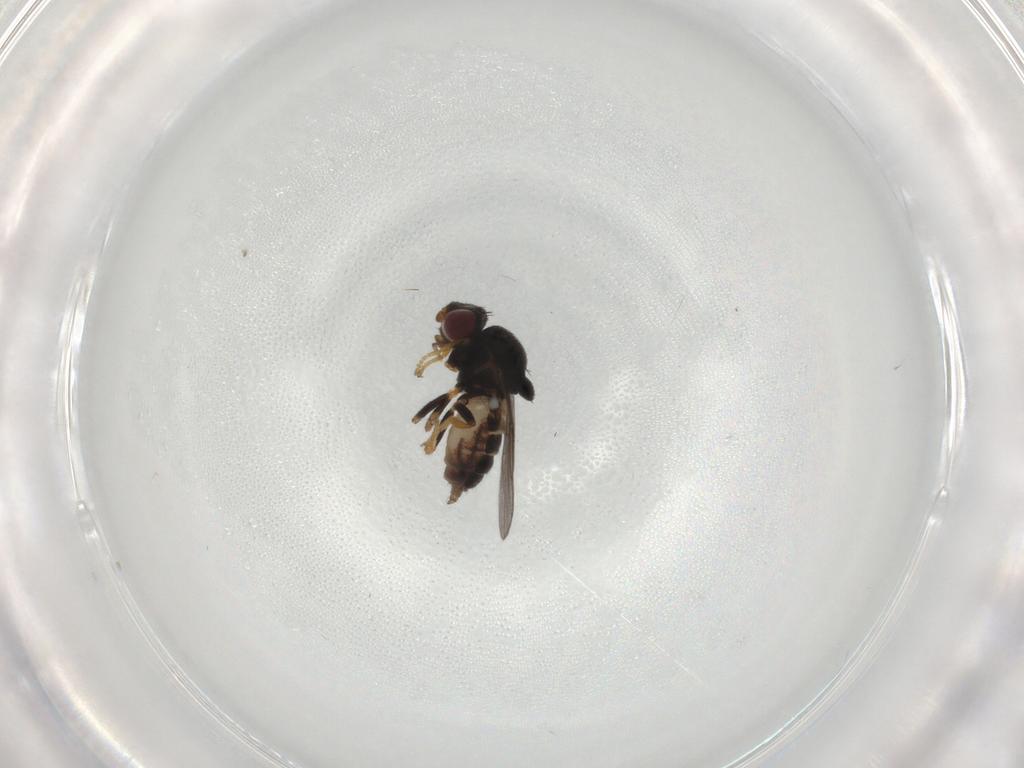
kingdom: Animalia
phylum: Arthropoda
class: Insecta
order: Diptera
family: Chloropidae
